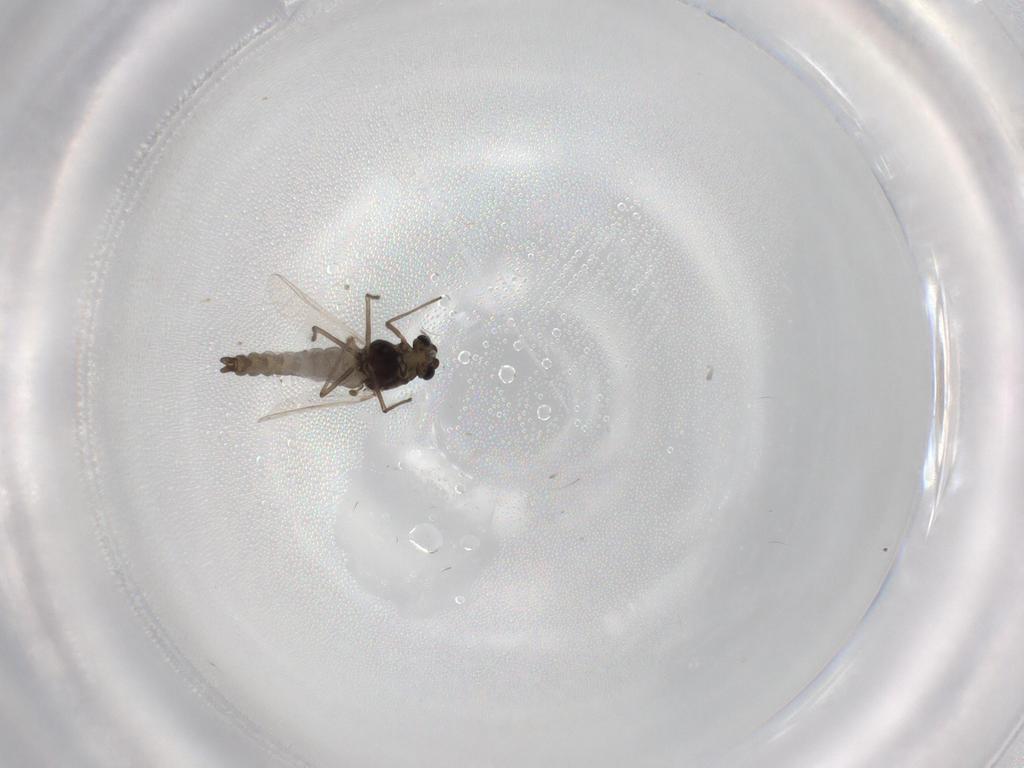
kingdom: Animalia
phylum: Arthropoda
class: Insecta
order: Diptera
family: Chironomidae
